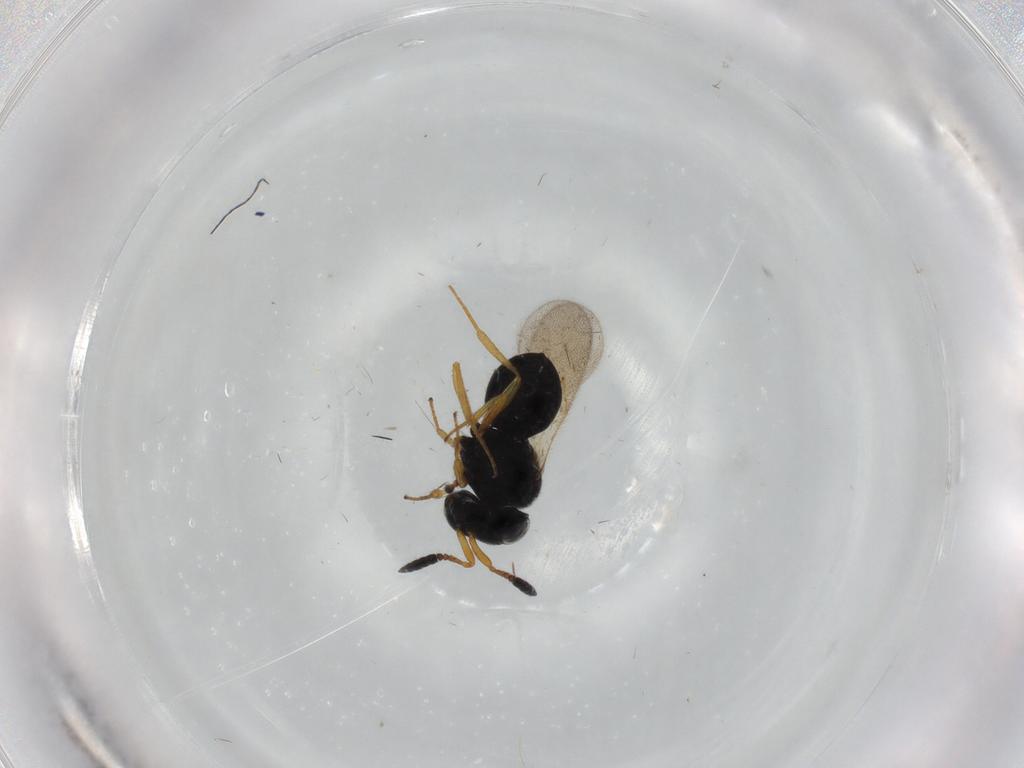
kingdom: Animalia
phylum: Arthropoda
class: Insecta
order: Hymenoptera
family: Scelionidae
